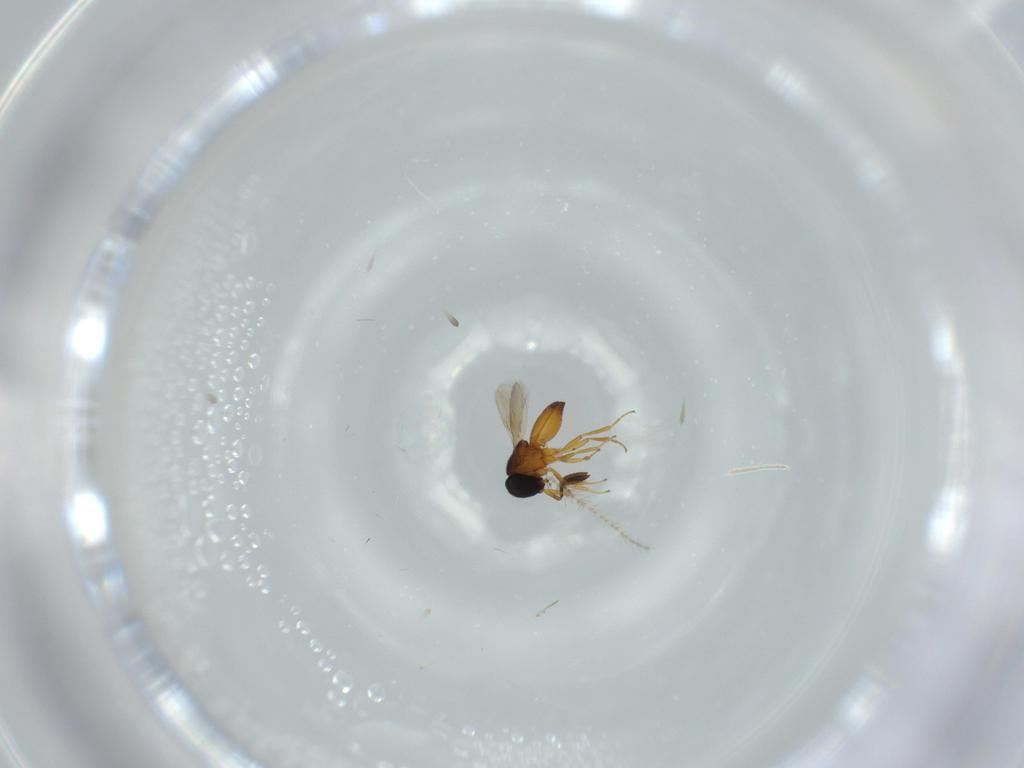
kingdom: Animalia
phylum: Arthropoda
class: Insecta
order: Hymenoptera
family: Scelionidae
